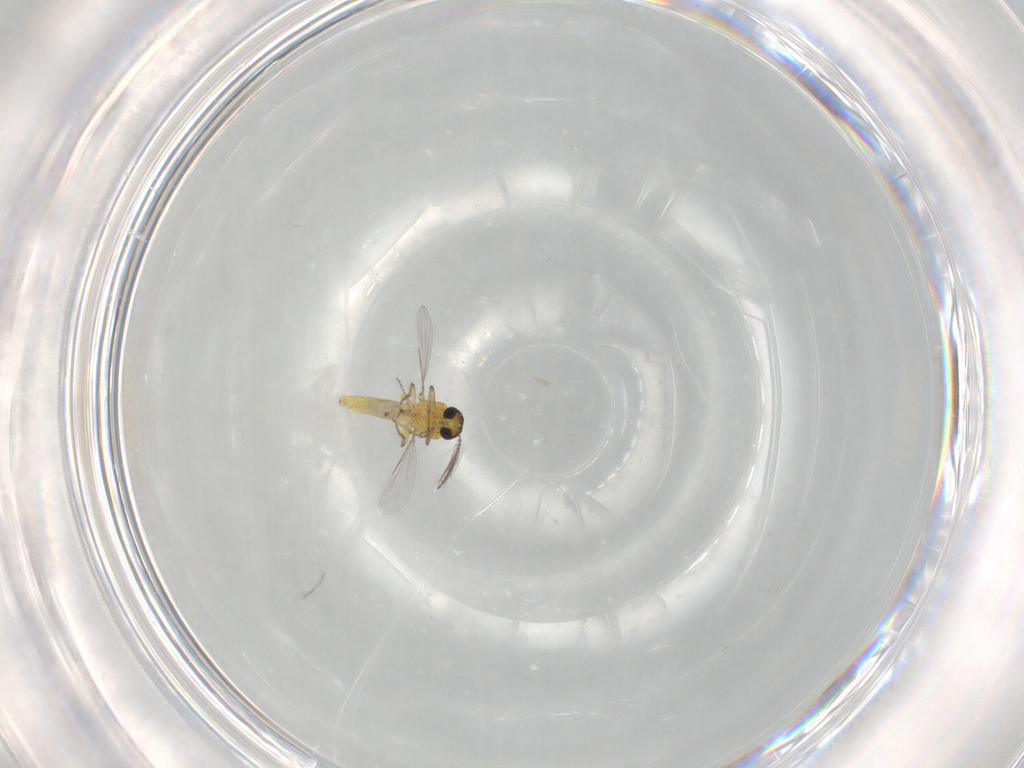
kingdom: Animalia
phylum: Arthropoda
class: Insecta
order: Diptera
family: Ceratopogonidae
